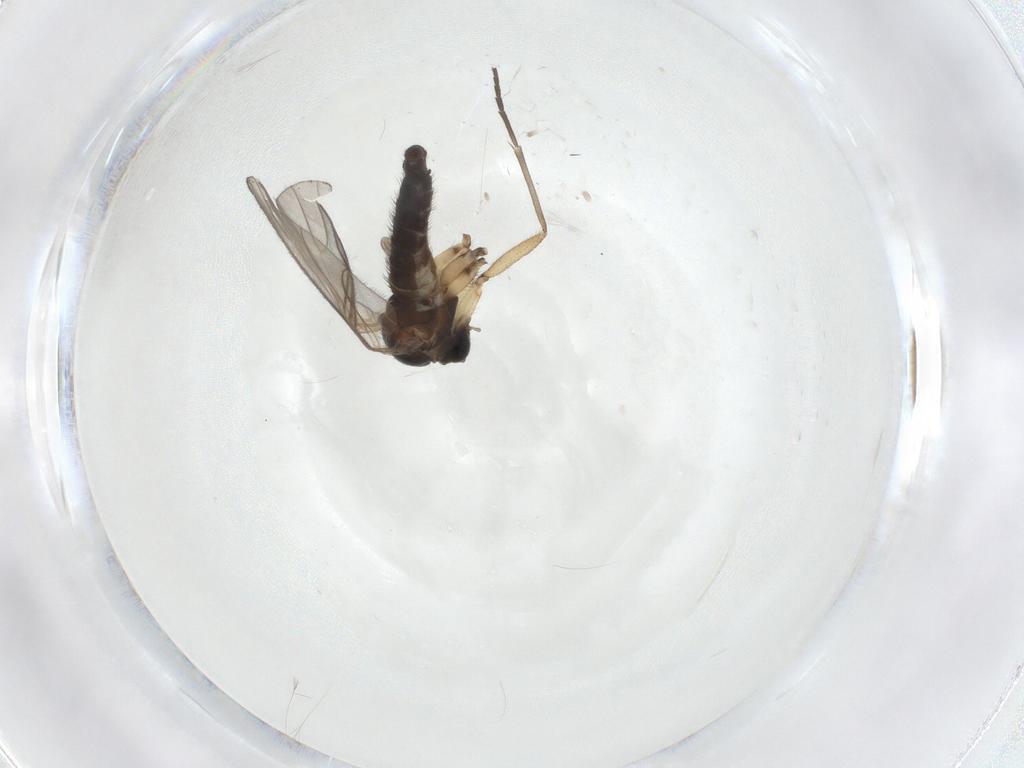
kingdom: Animalia
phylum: Arthropoda
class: Insecta
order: Diptera
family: Sciaridae
